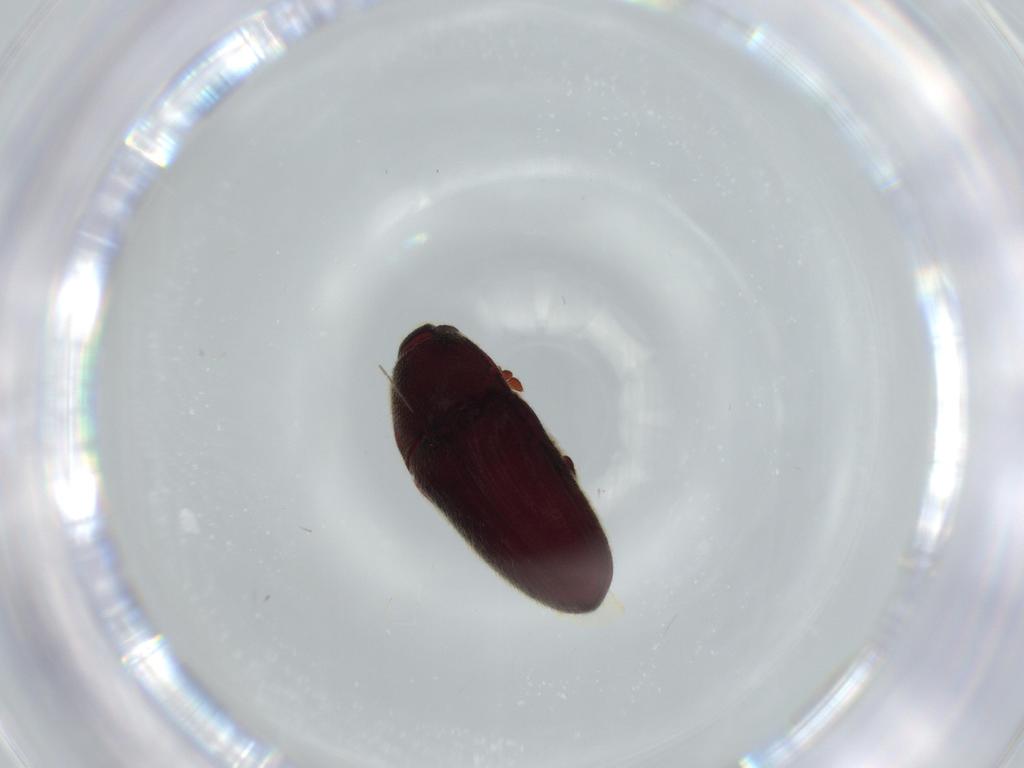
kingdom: Animalia
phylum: Arthropoda
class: Insecta
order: Coleoptera
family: Throscidae
